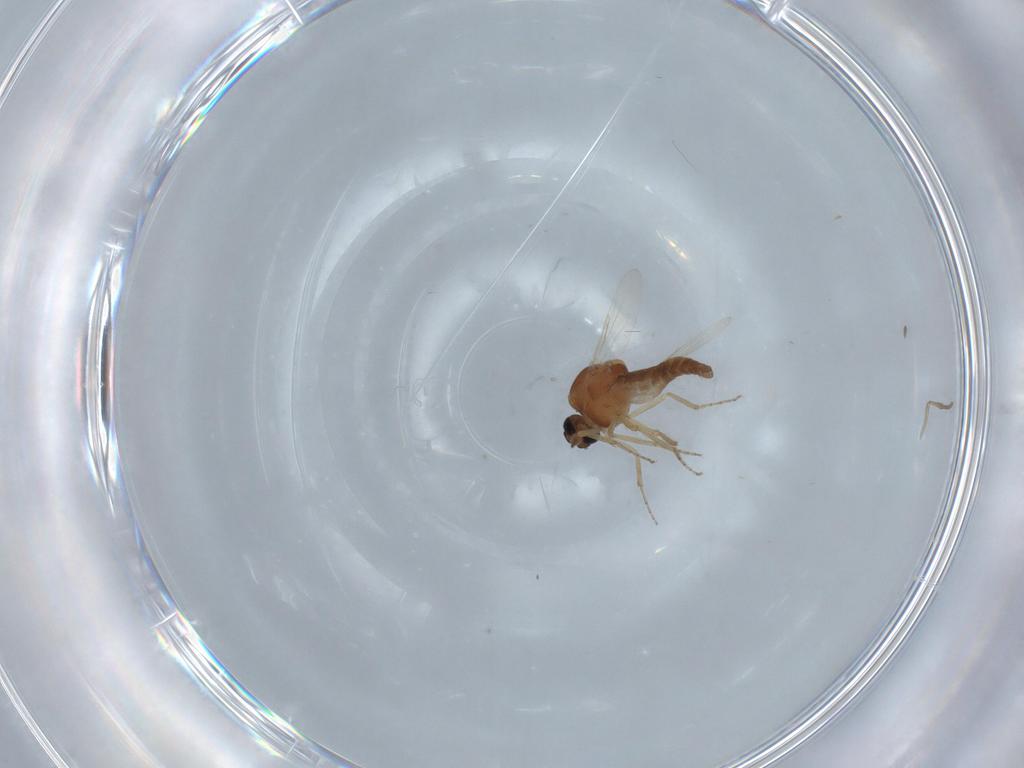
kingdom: Animalia
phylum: Arthropoda
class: Insecta
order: Diptera
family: Ceratopogonidae
